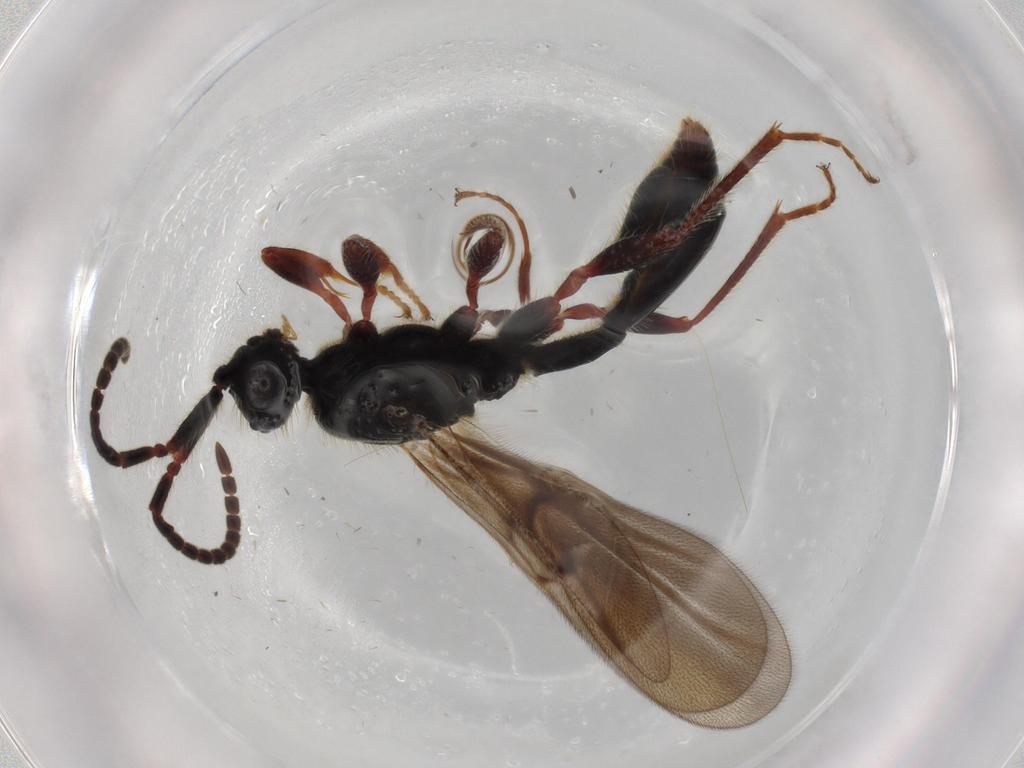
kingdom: Animalia
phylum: Arthropoda
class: Insecta
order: Hymenoptera
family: Diapriidae
